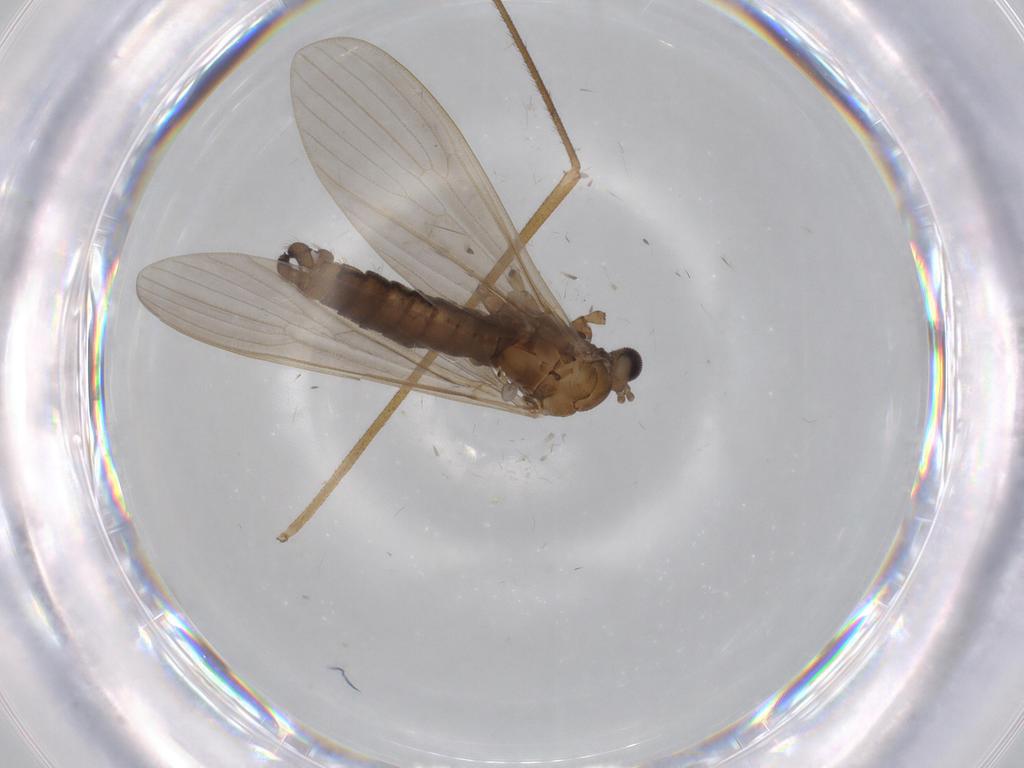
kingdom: Animalia
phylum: Arthropoda
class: Insecta
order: Diptera
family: Limoniidae
